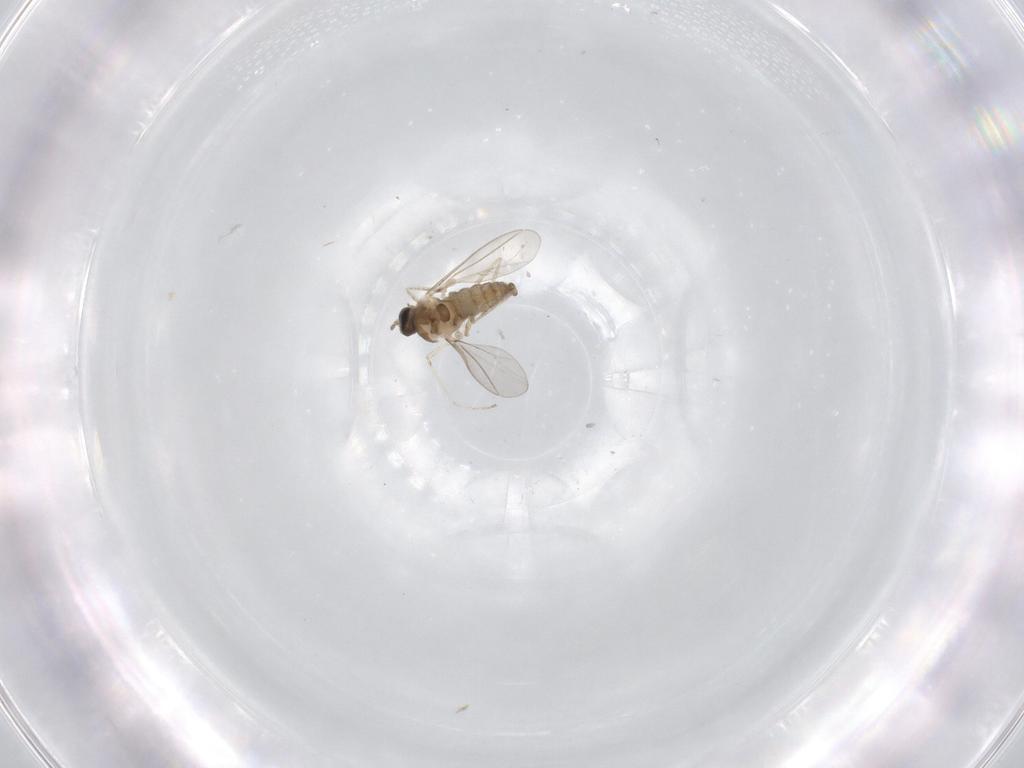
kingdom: Animalia
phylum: Arthropoda
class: Insecta
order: Diptera
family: Cecidomyiidae
